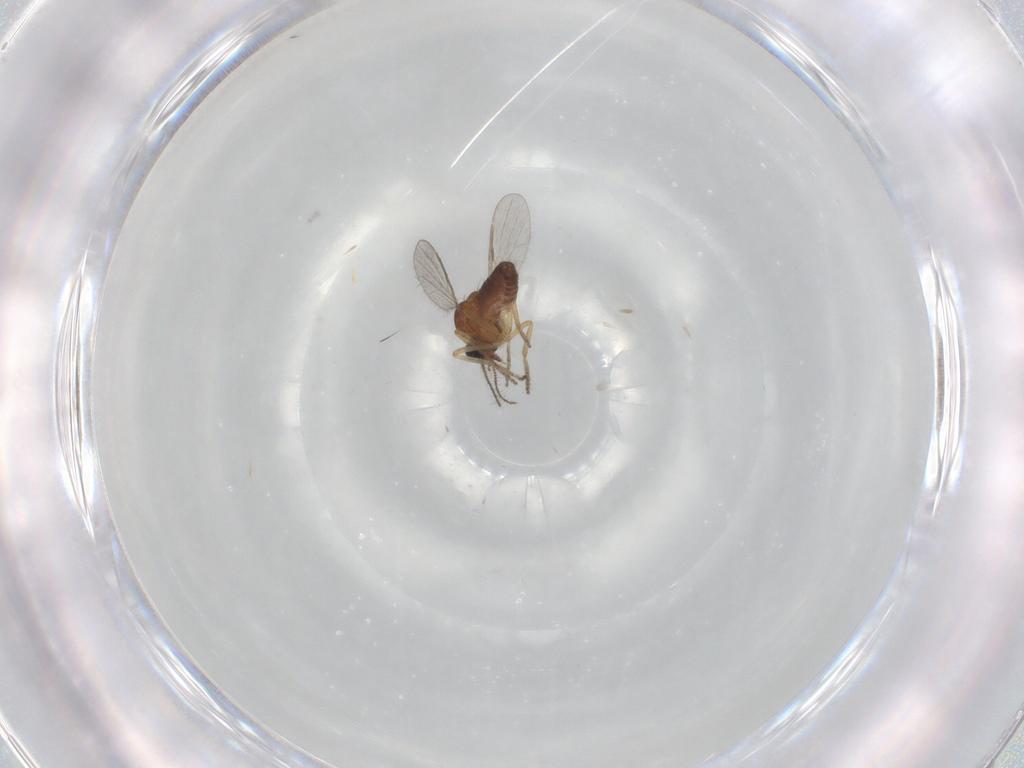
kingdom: Animalia
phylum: Arthropoda
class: Insecta
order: Diptera
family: Ceratopogonidae
